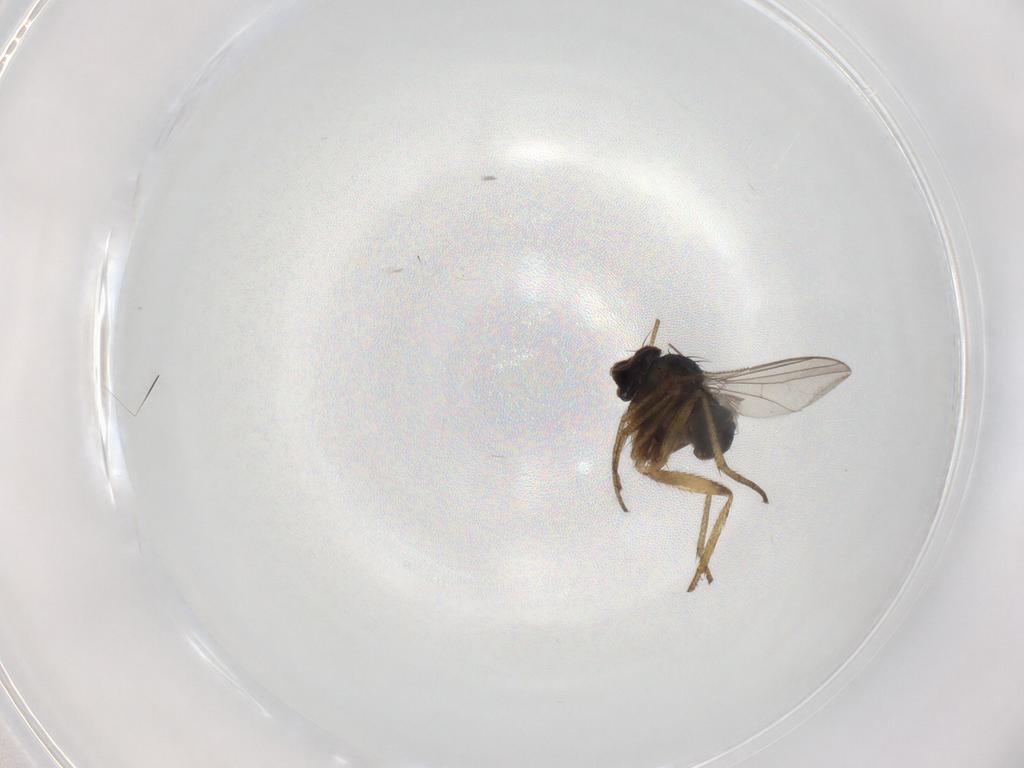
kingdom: Animalia
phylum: Arthropoda
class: Insecta
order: Diptera
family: Dolichopodidae
